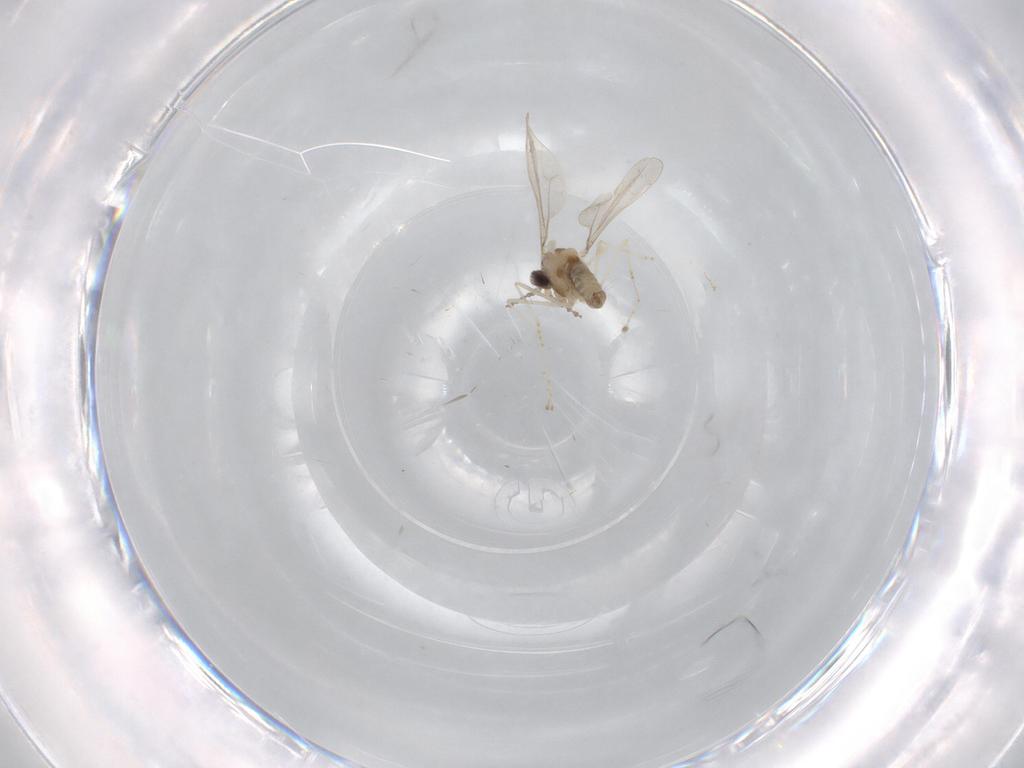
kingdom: Animalia
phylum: Arthropoda
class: Insecta
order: Diptera
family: Cecidomyiidae
